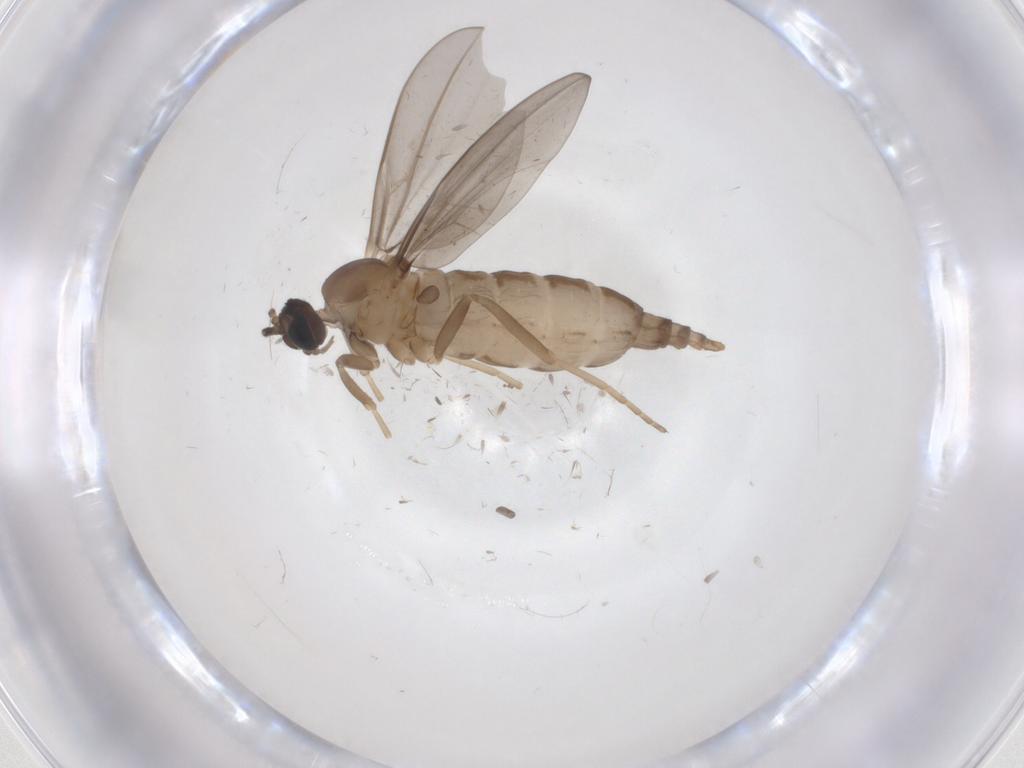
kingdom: Animalia
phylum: Arthropoda
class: Insecta
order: Diptera
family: Cecidomyiidae
